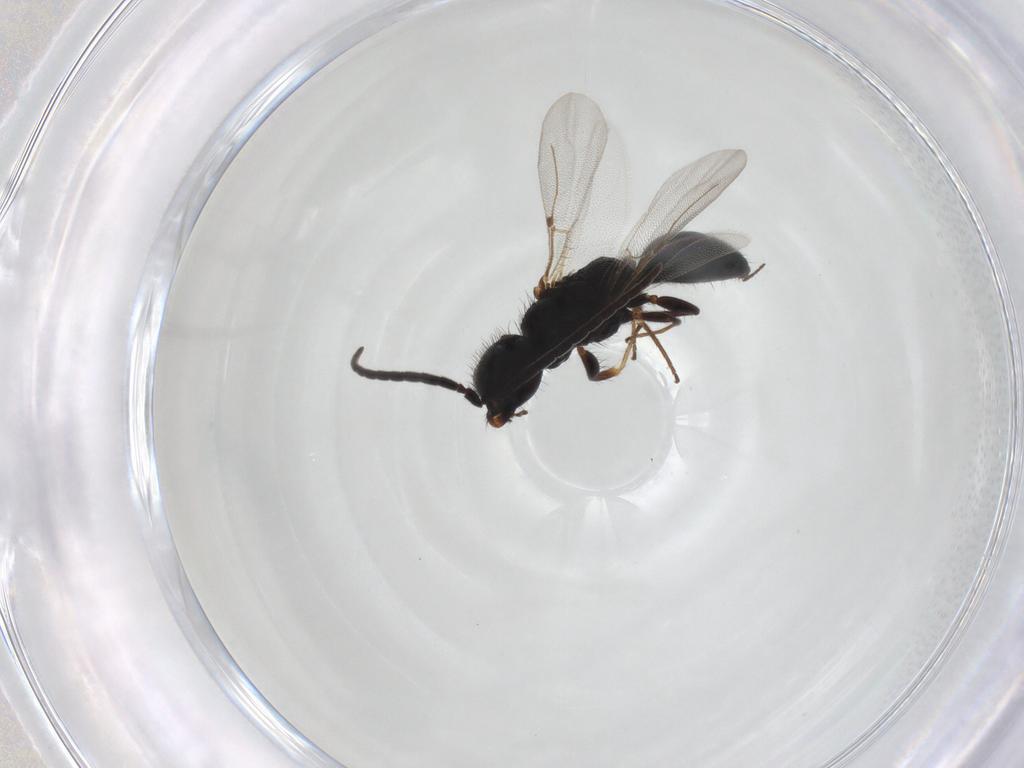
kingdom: Animalia
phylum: Arthropoda
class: Insecta
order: Hymenoptera
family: Bethylidae
